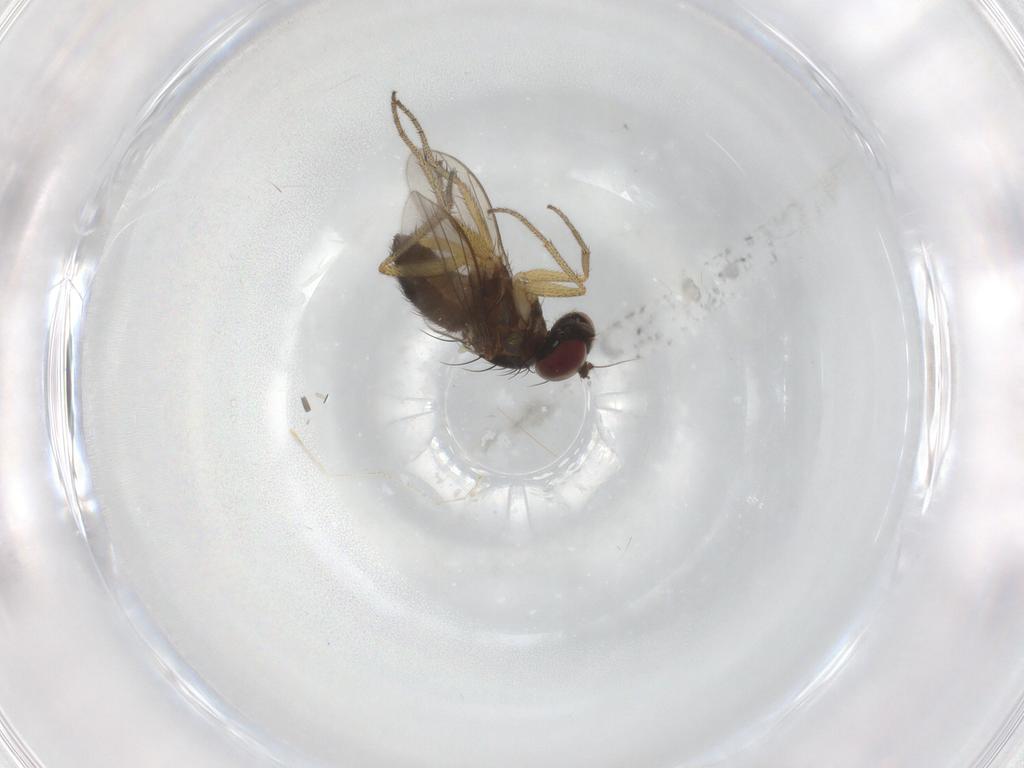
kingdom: Animalia
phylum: Arthropoda
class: Insecta
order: Diptera
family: Dolichopodidae
